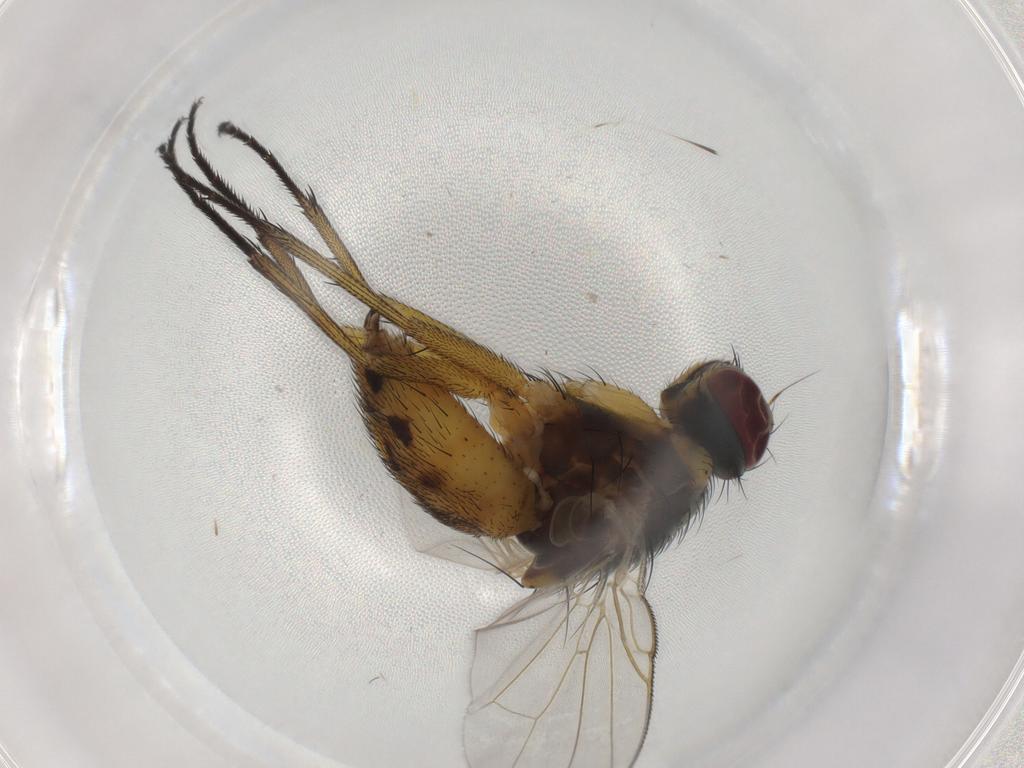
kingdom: Animalia
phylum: Arthropoda
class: Insecta
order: Diptera
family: Muscidae
